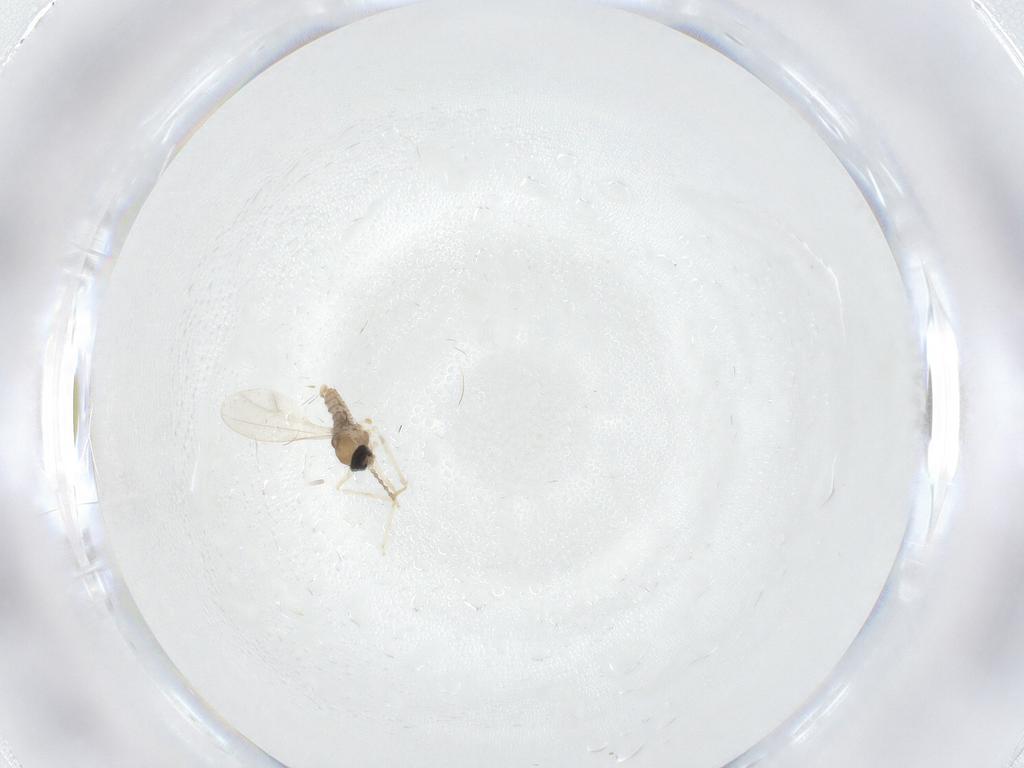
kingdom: Animalia
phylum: Arthropoda
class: Insecta
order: Diptera
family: Cecidomyiidae
